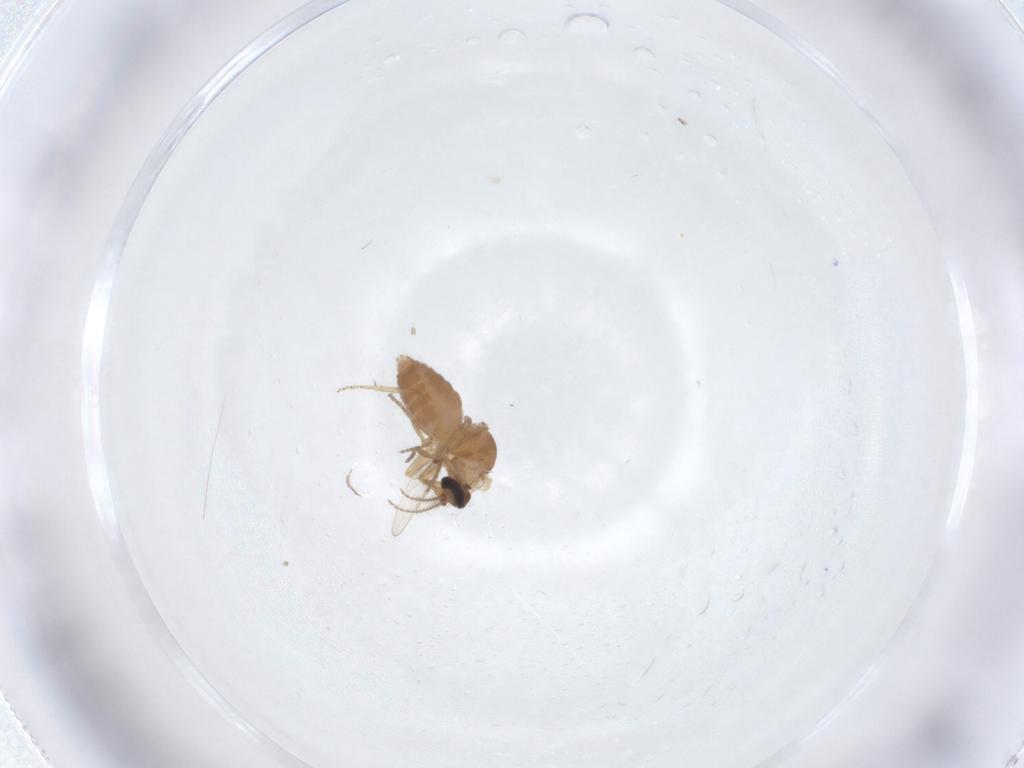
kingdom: Animalia
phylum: Arthropoda
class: Insecta
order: Diptera
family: Ceratopogonidae
